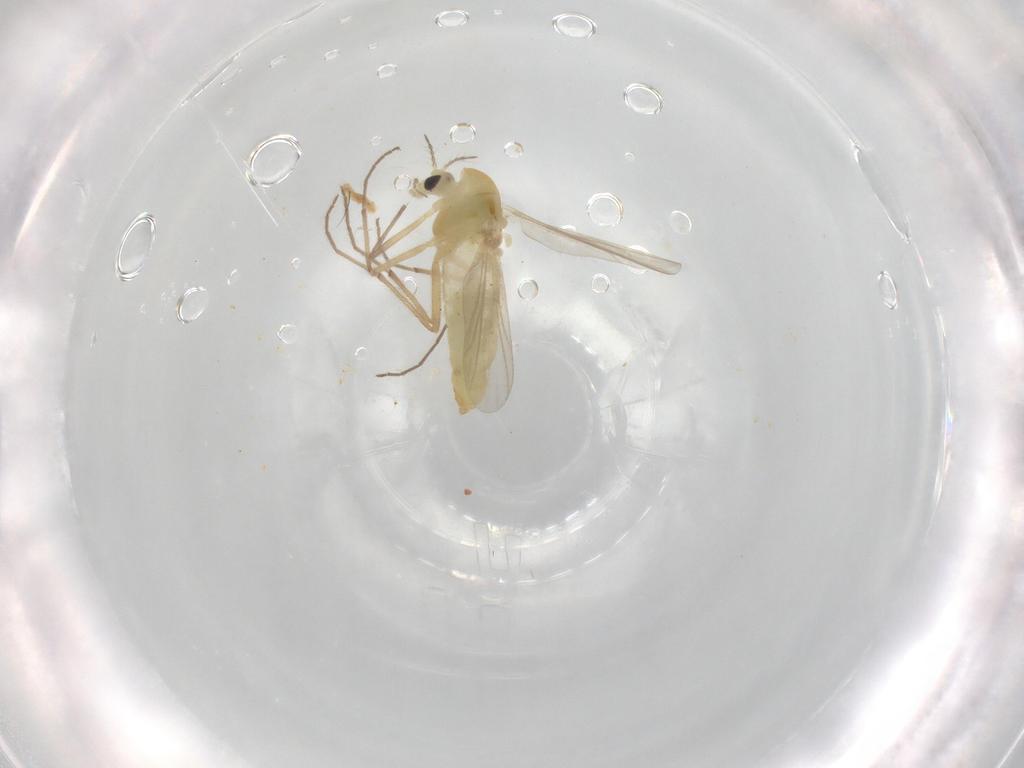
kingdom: Animalia
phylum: Arthropoda
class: Insecta
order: Diptera
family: Chironomidae
